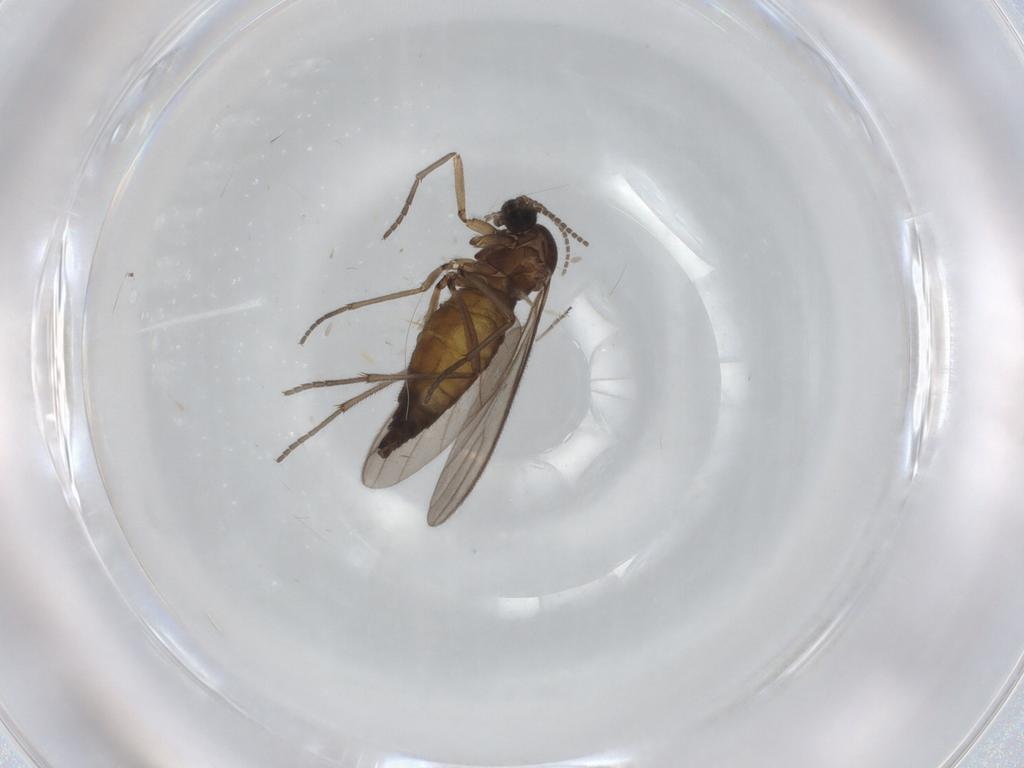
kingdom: Animalia
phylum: Arthropoda
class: Insecta
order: Diptera
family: Sciaridae
